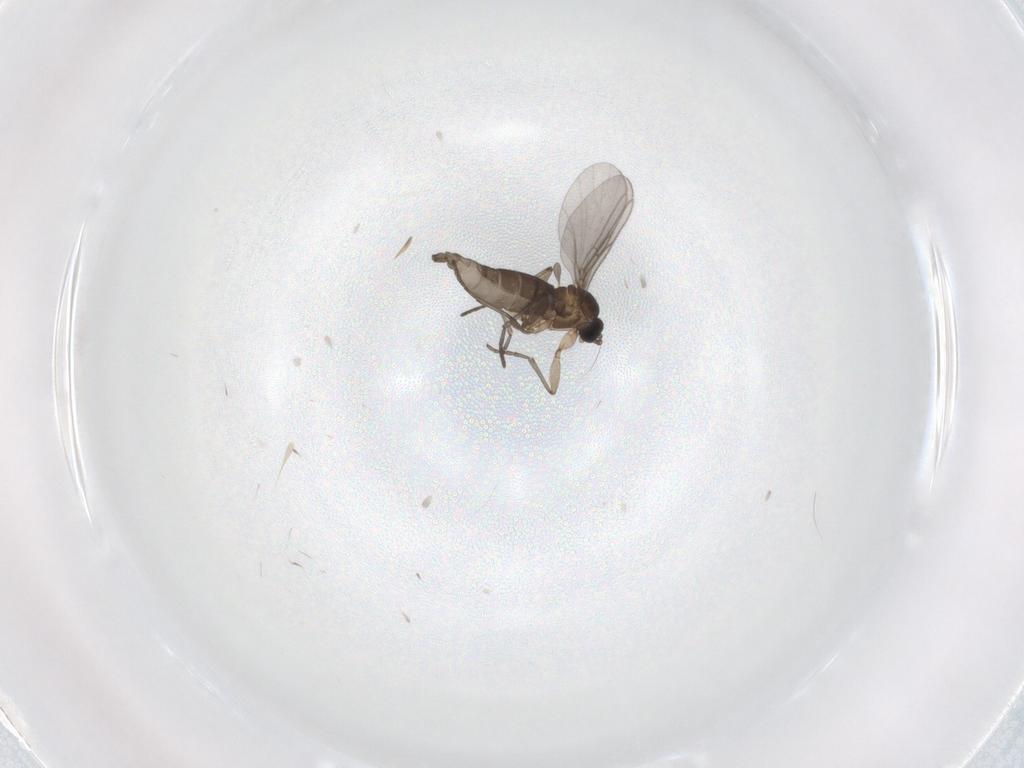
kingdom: Animalia
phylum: Arthropoda
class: Insecta
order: Diptera
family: Sciaridae
